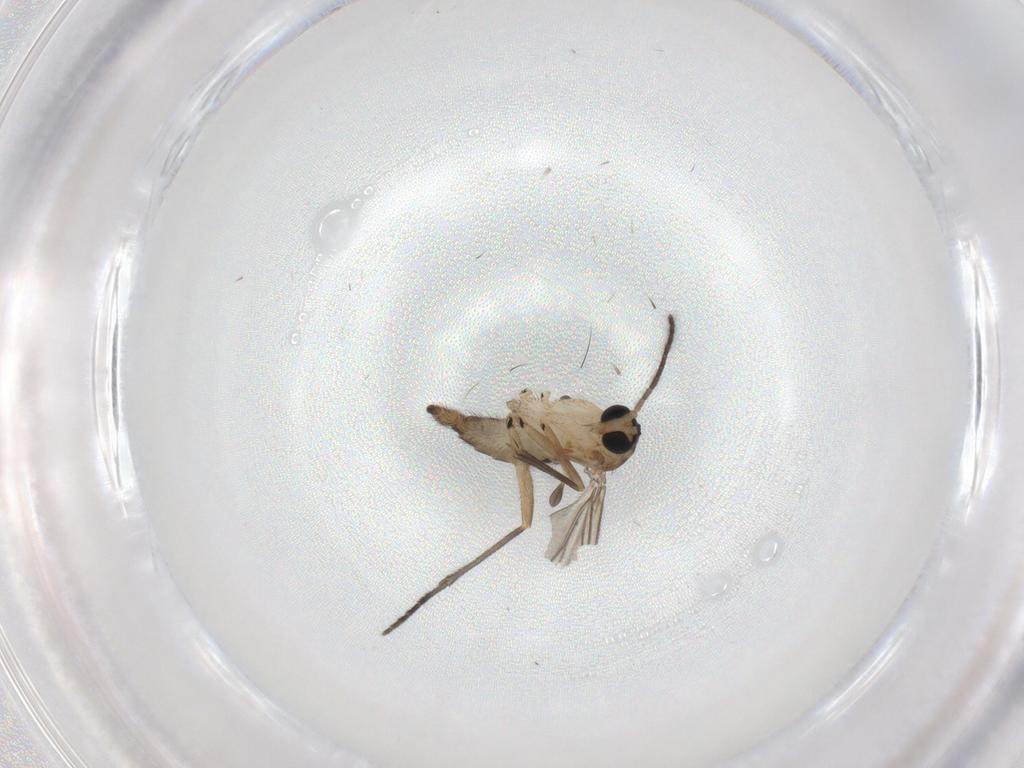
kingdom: Animalia
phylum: Arthropoda
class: Insecta
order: Diptera
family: Sciaridae
